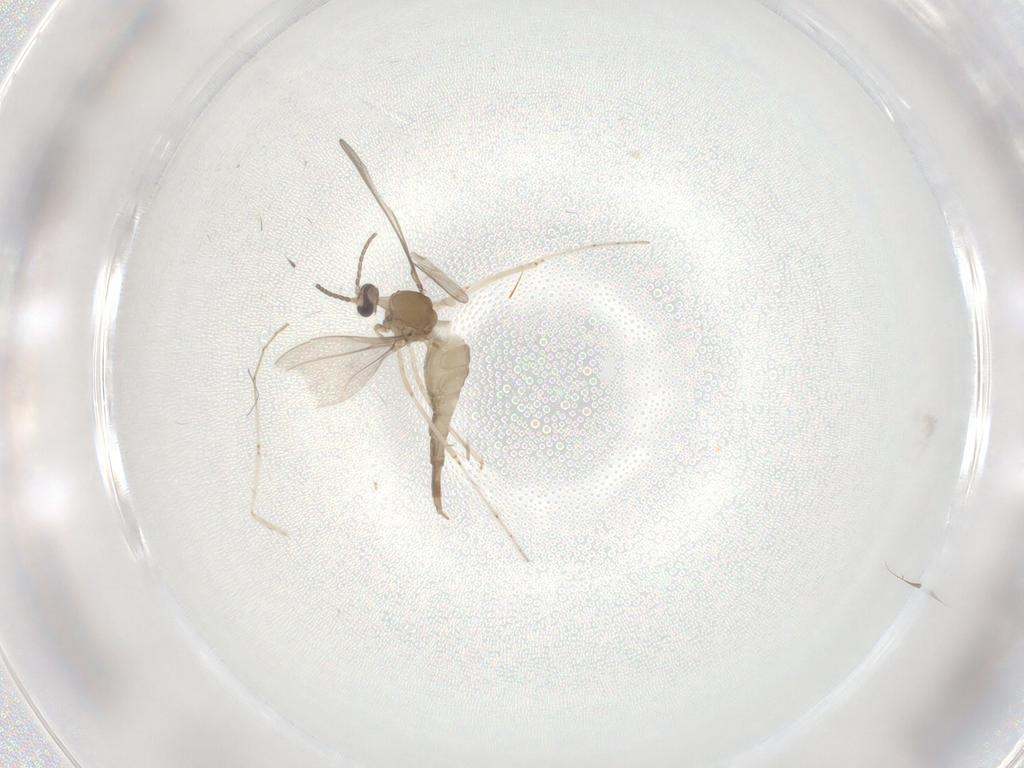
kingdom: Animalia
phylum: Arthropoda
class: Insecta
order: Diptera
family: Cecidomyiidae
